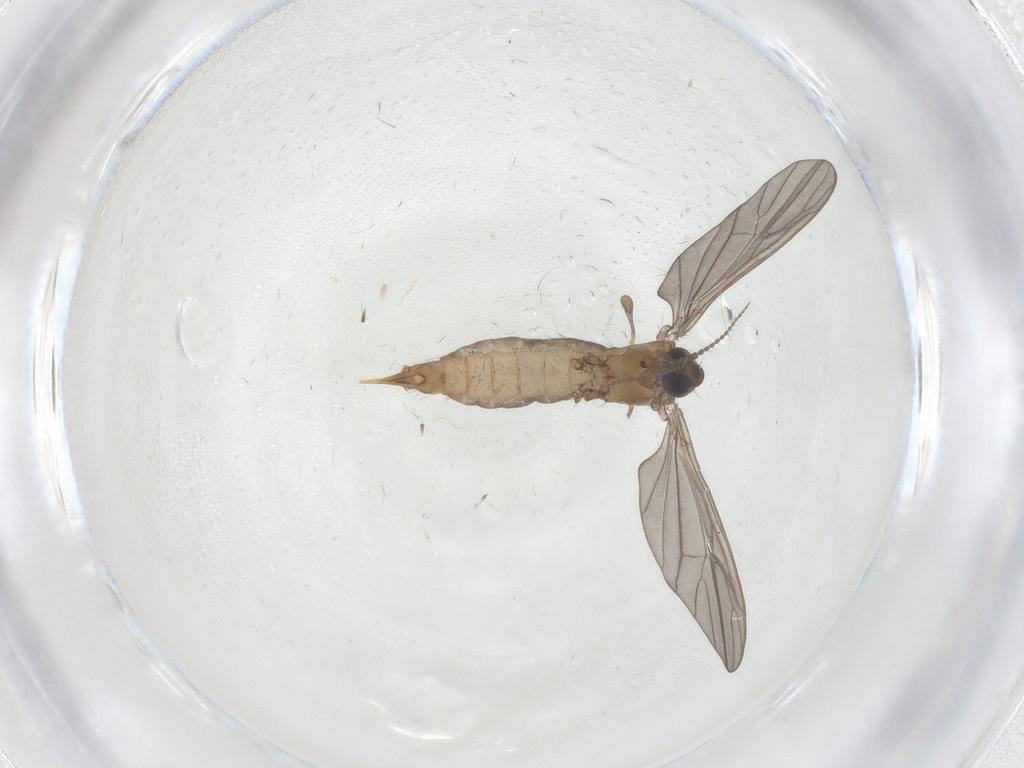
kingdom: Animalia
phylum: Arthropoda
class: Insecta
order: Diptera
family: Limoniidae
